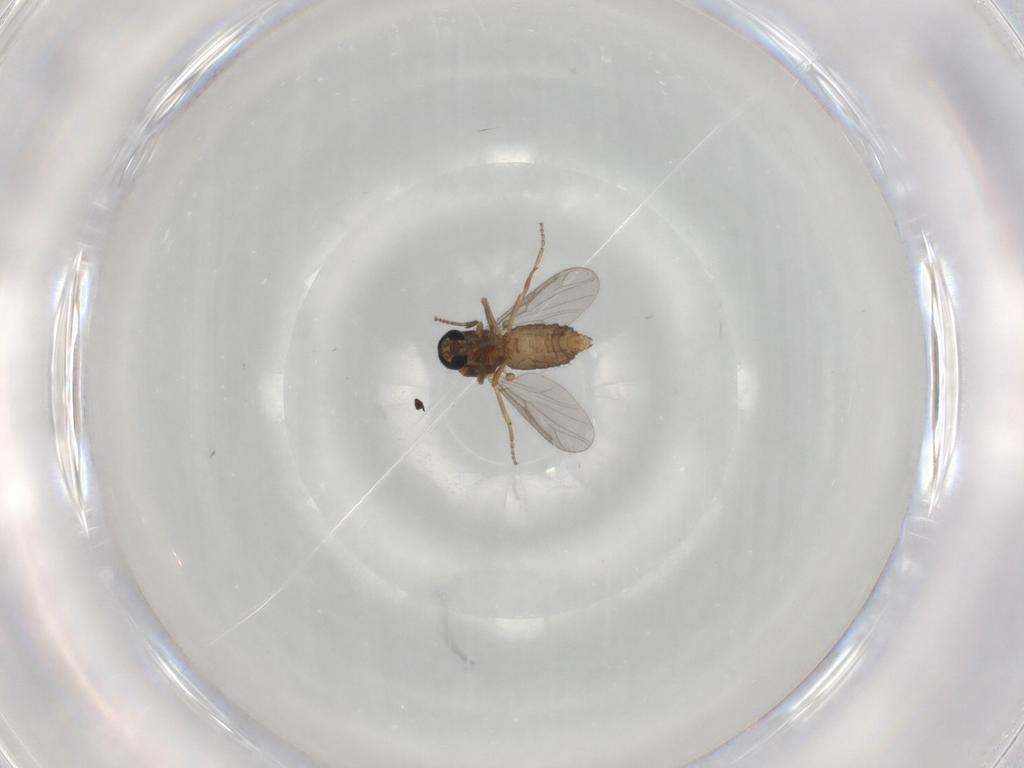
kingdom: Animalia
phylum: Arthropoda
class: Insecta
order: Diptera
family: Ceratopogonidae
